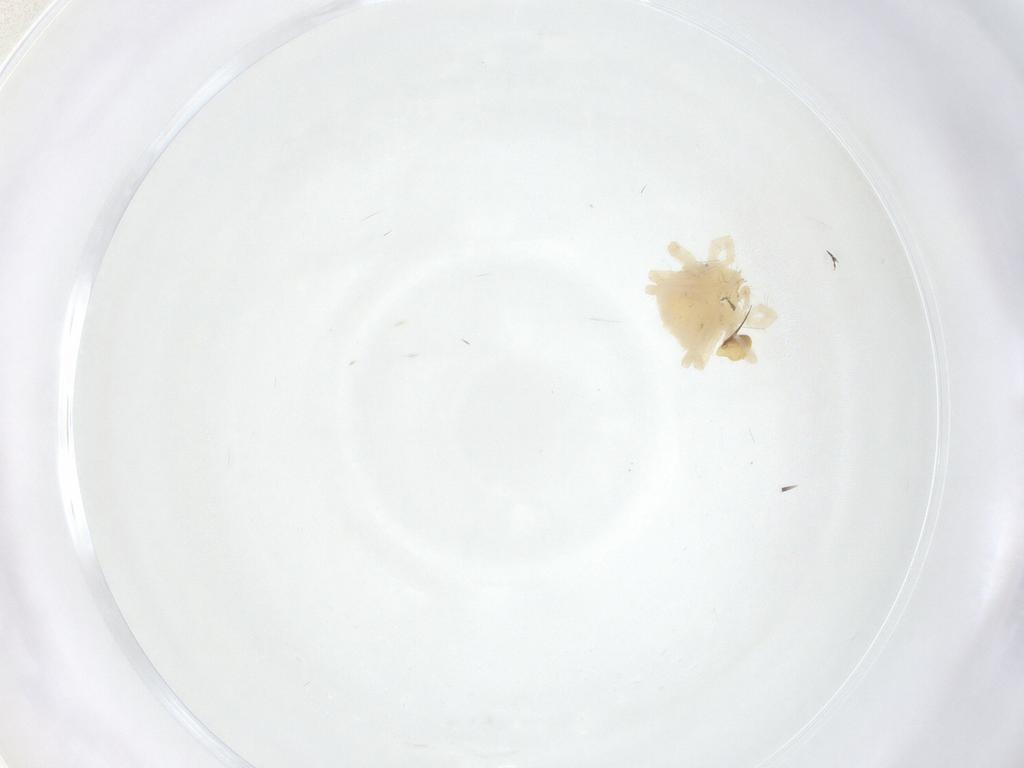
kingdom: Animalia
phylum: Arthropoda
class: Arachnida
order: Trombidiformes
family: Anystidae
